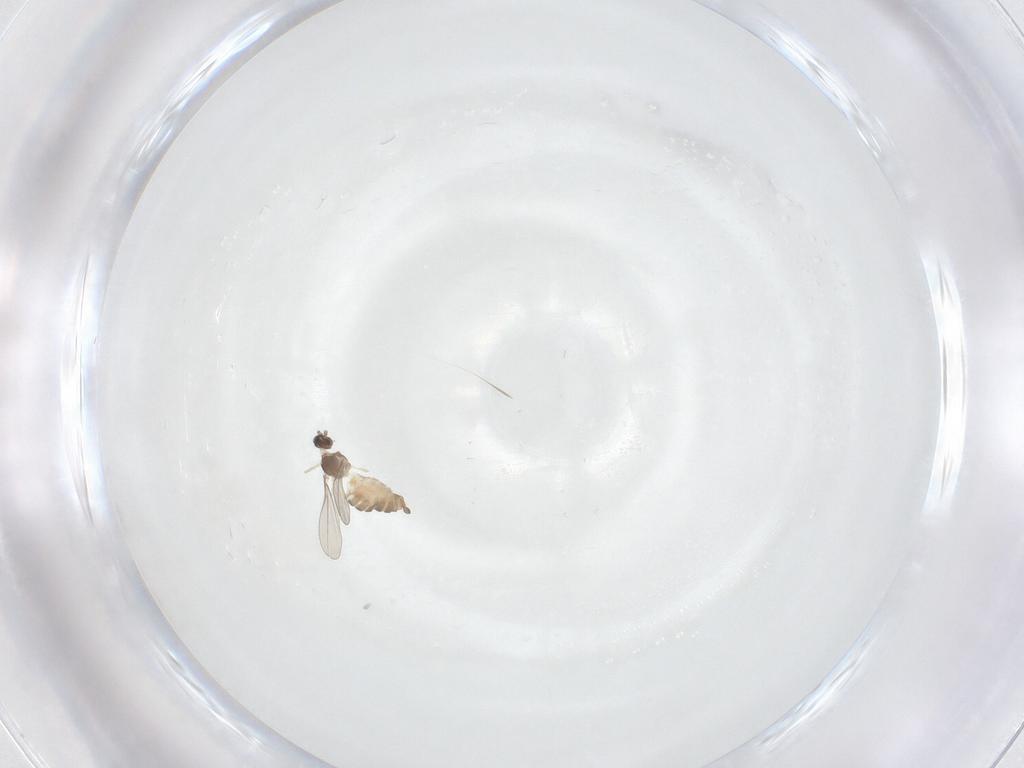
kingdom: Animalia
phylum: Arthropoda
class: Insecta
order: Diptera
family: Cecidomyiidae
